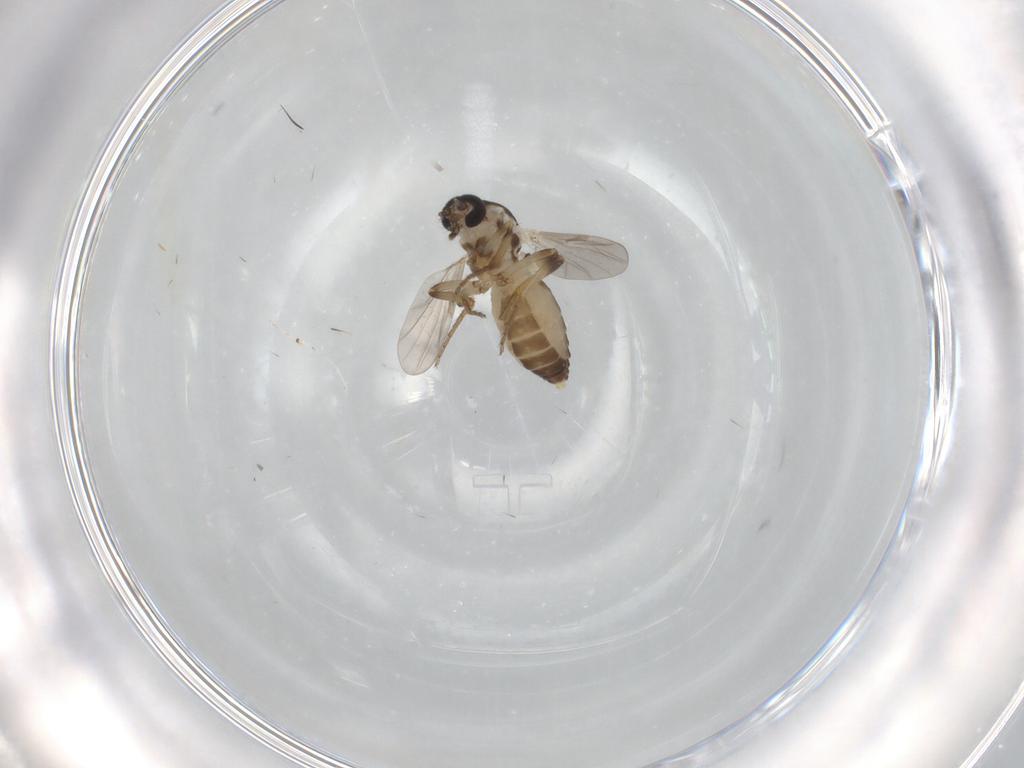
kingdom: Animalia
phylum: Arthropoda
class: Insecta
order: Diptera
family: Ceratopogonidae
